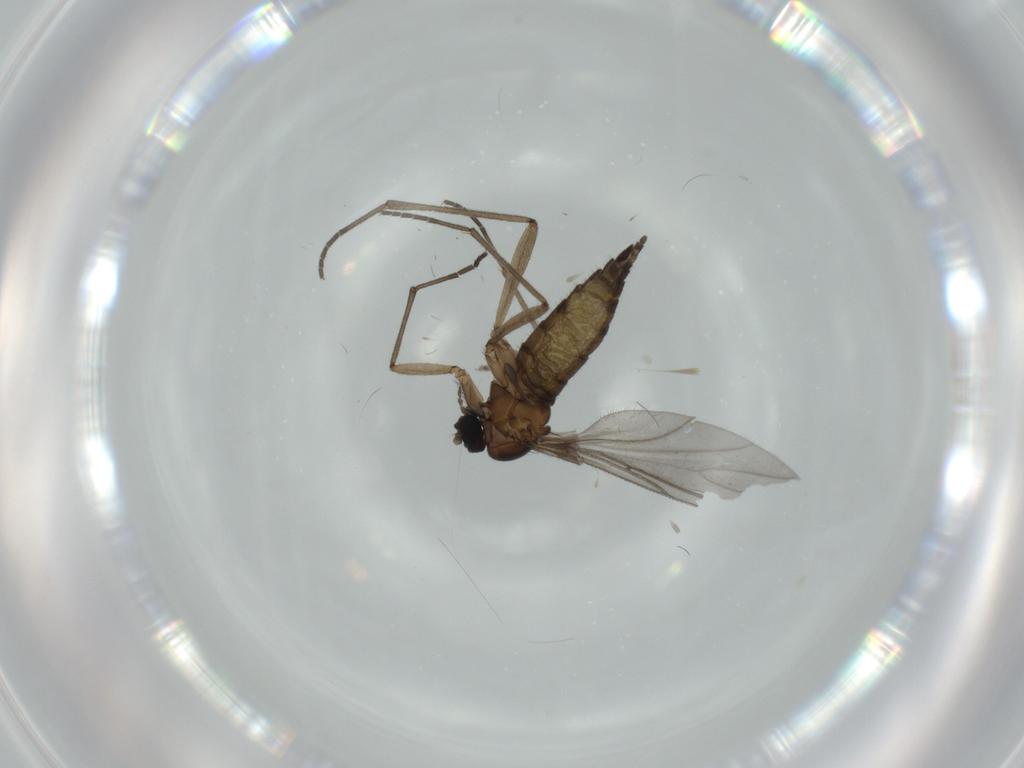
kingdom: Animalia
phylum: Arthropoda
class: Insecta
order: Diptera
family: Sciaridae
